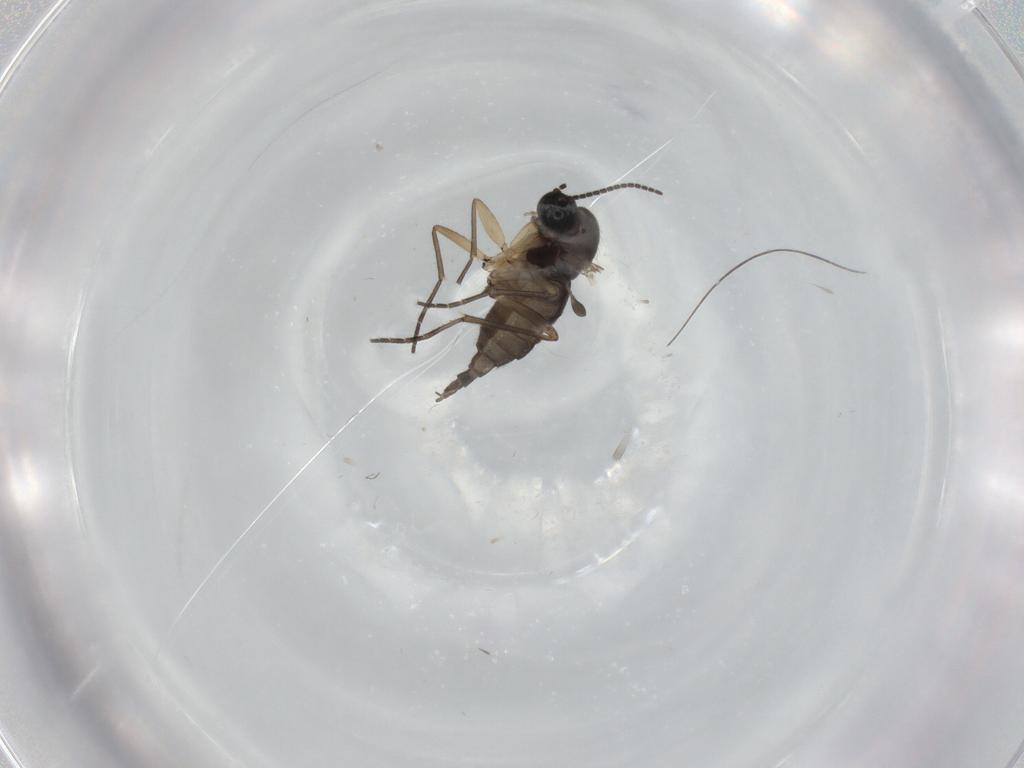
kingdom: Animalia
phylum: Arthropoda
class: Insecta
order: Diptera
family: Sciaridae
